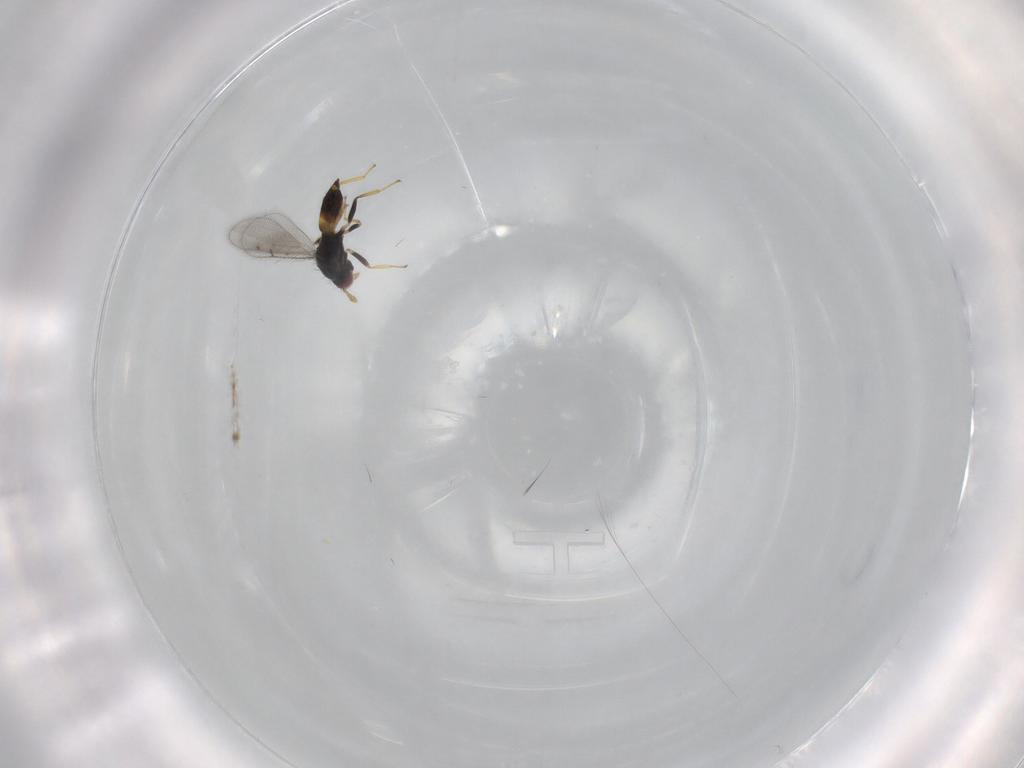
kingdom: Animalia
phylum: Arthropoda
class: Insecta
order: Hymenoptera
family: Eulophidae
